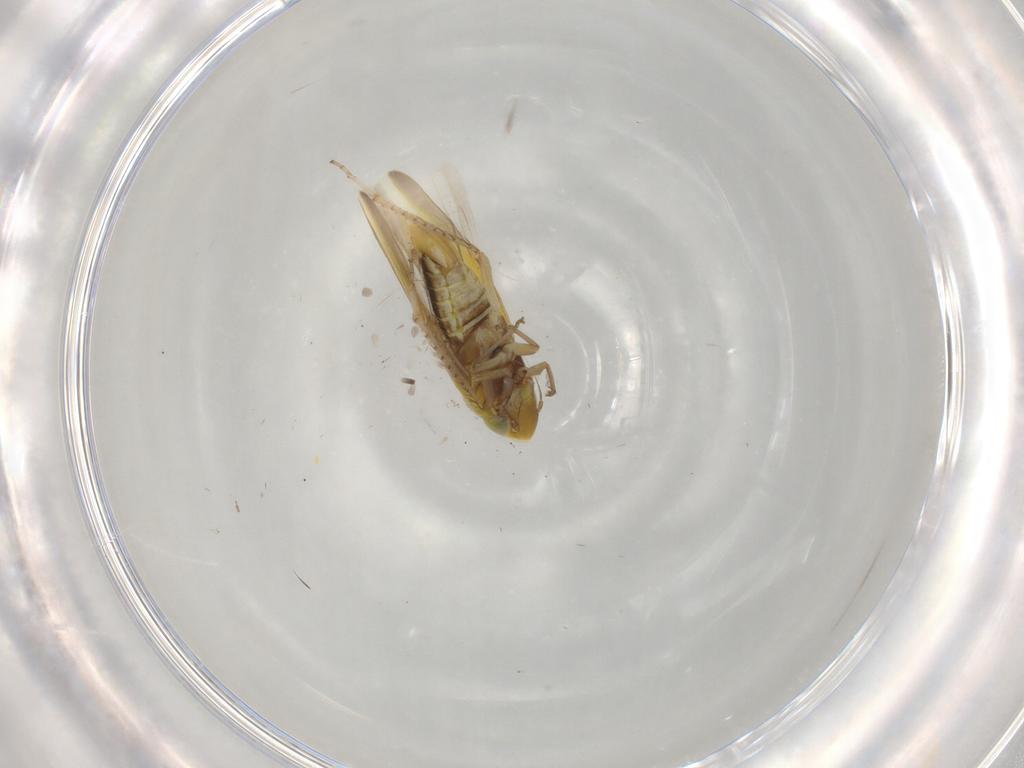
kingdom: Animalia
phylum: Arthropoda
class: Insecta
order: Hemiptera
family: Cicadellidae
